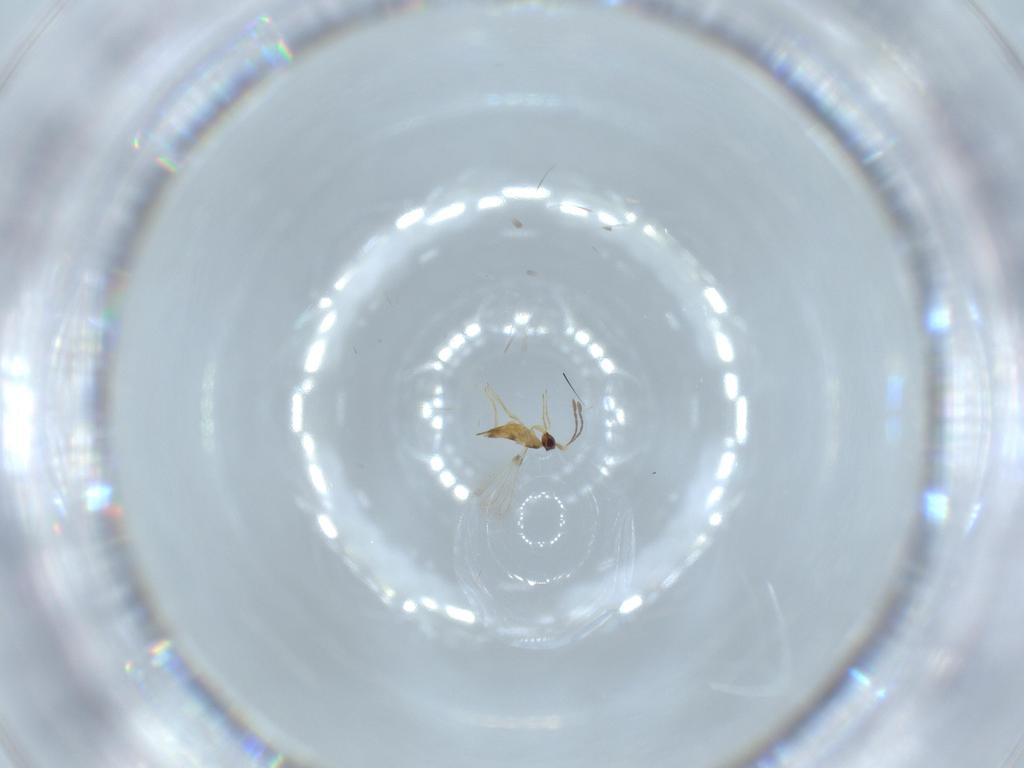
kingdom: Animalia
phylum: Arthropoda
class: Insecta
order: Hymenoptera
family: Mymaridae
